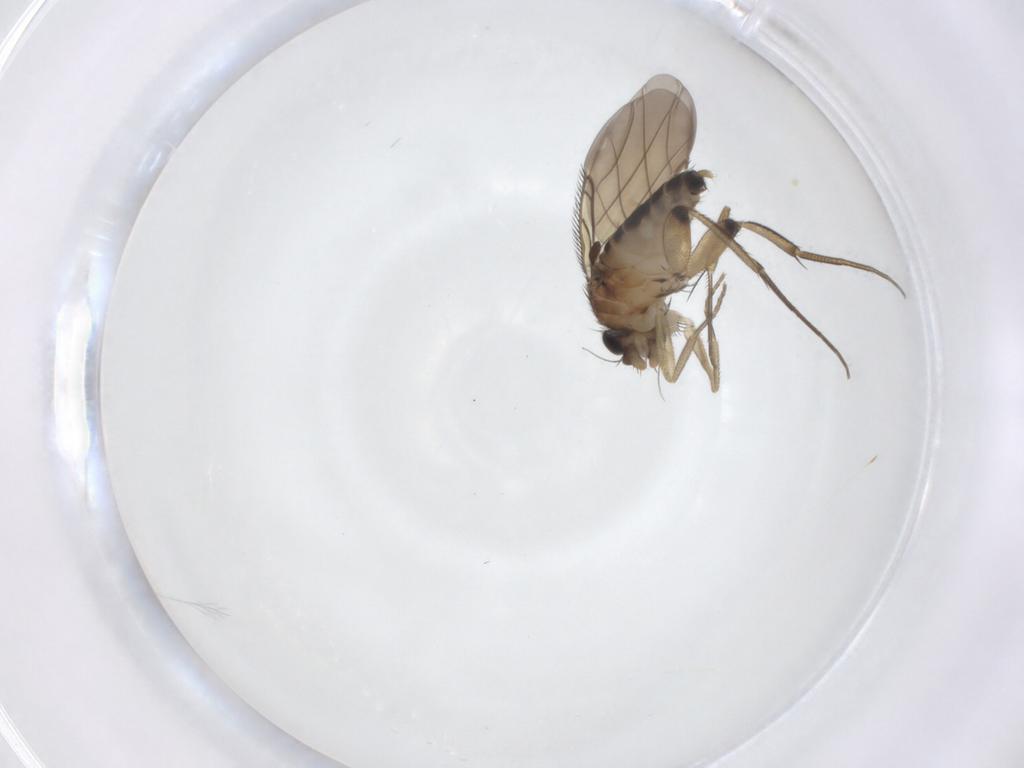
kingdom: Animalia
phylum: Arthropoda
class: Insecta
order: Diptera
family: Phoridae
